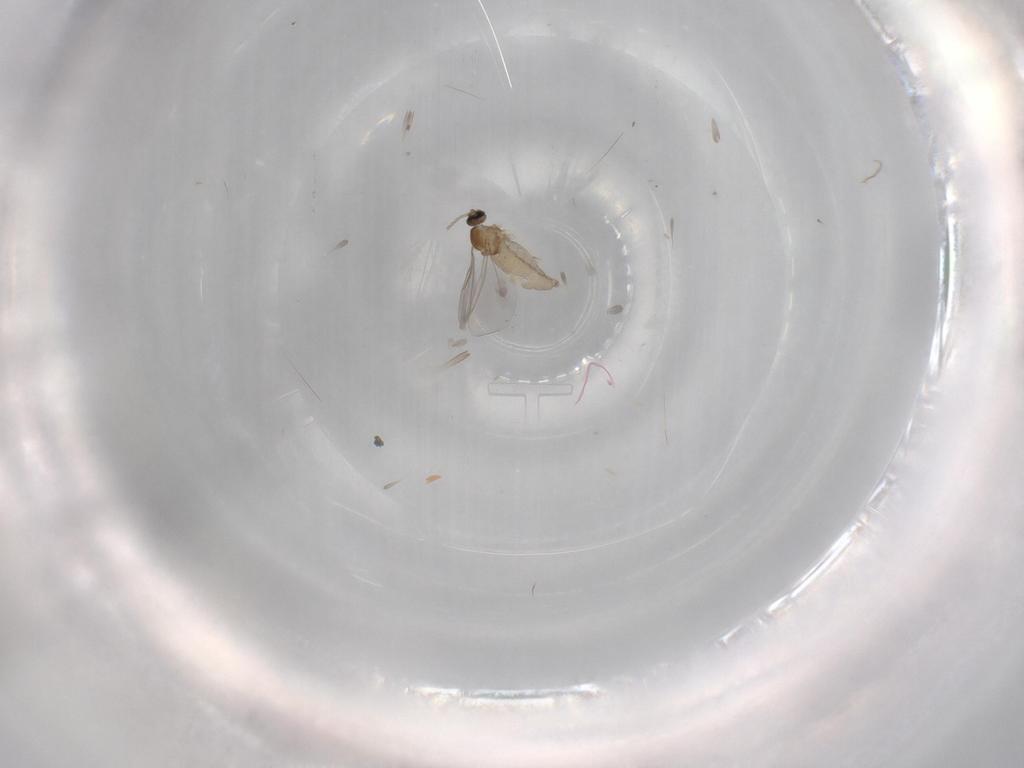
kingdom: Animalia
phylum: Arthropoda
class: Insecta
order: Diptera
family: Cecidomyiidae
